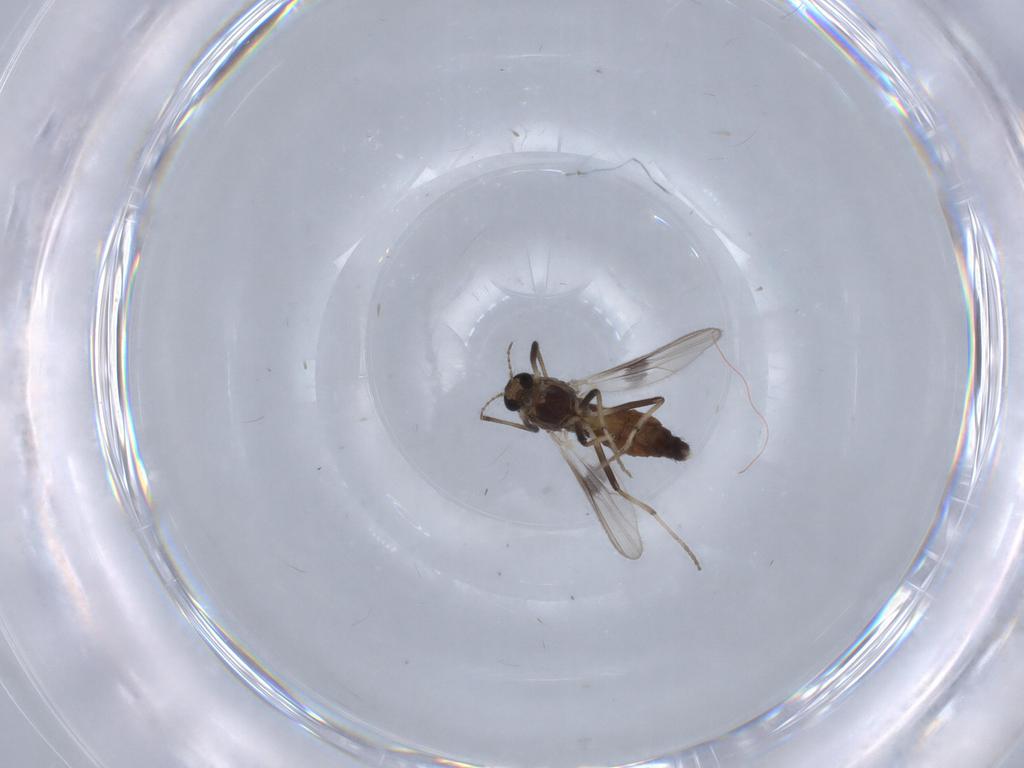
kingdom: Animalia
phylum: Arthropoda
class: Insecta
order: Diptera
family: Chironomidae
